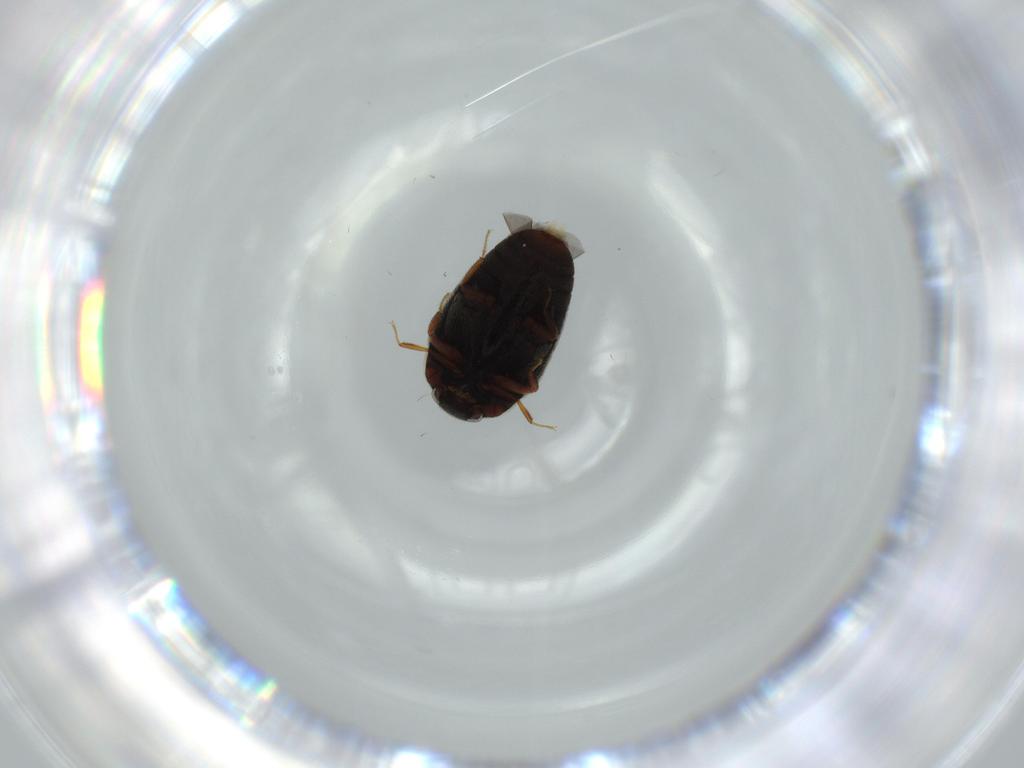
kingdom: Animalia
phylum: Arthropoda
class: Insecta
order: Coleoptera
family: Dermestidae
